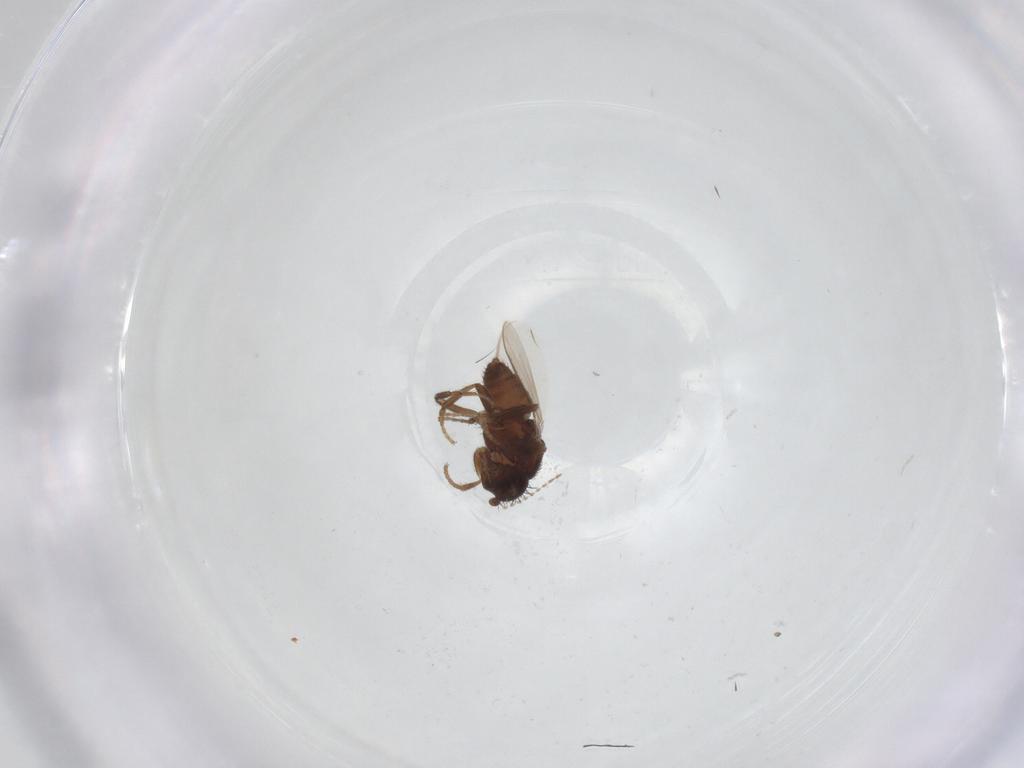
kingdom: Animalia
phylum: Arthropoda
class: Insecta
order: Diptera
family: Sphaeroceridae
